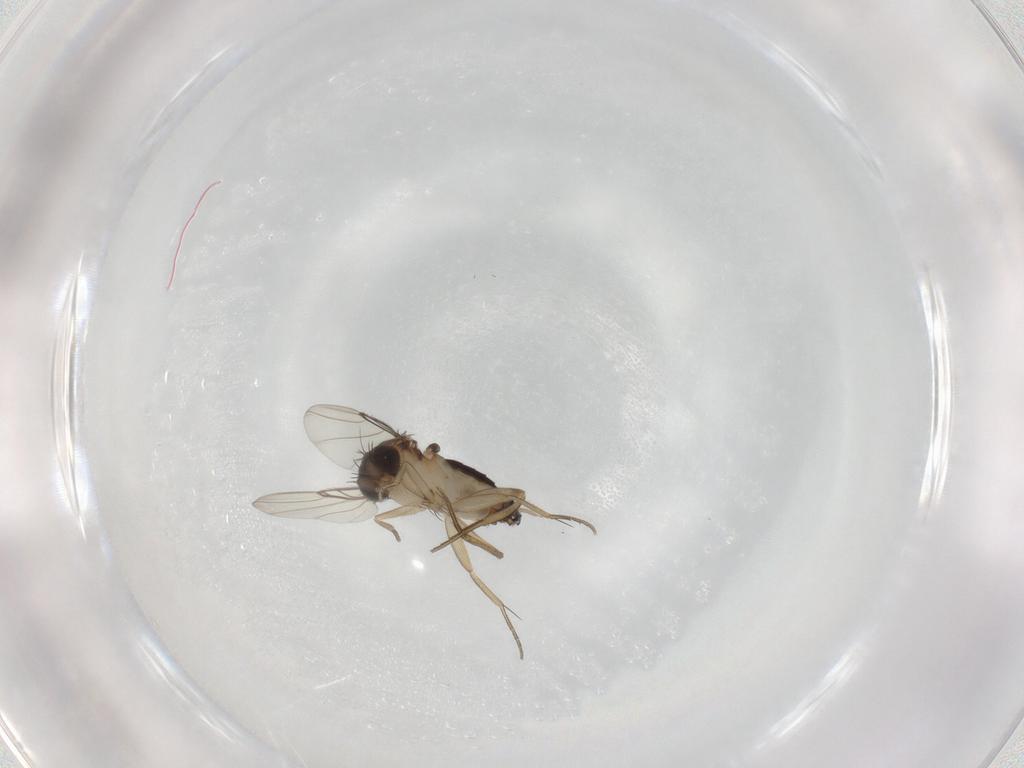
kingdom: Animalia
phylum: Arthropoda
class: Insecta
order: Diptera
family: Phoridae
